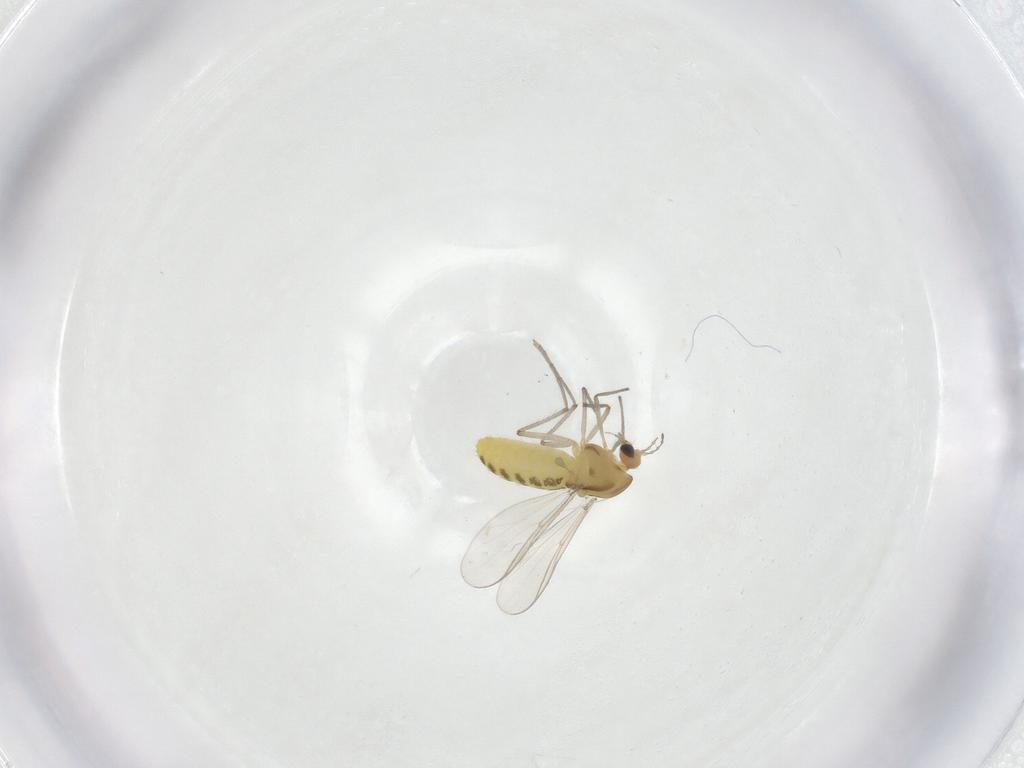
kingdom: Animalia
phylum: Arthropoda
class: Insecta
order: Diptera
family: Chironomidae
